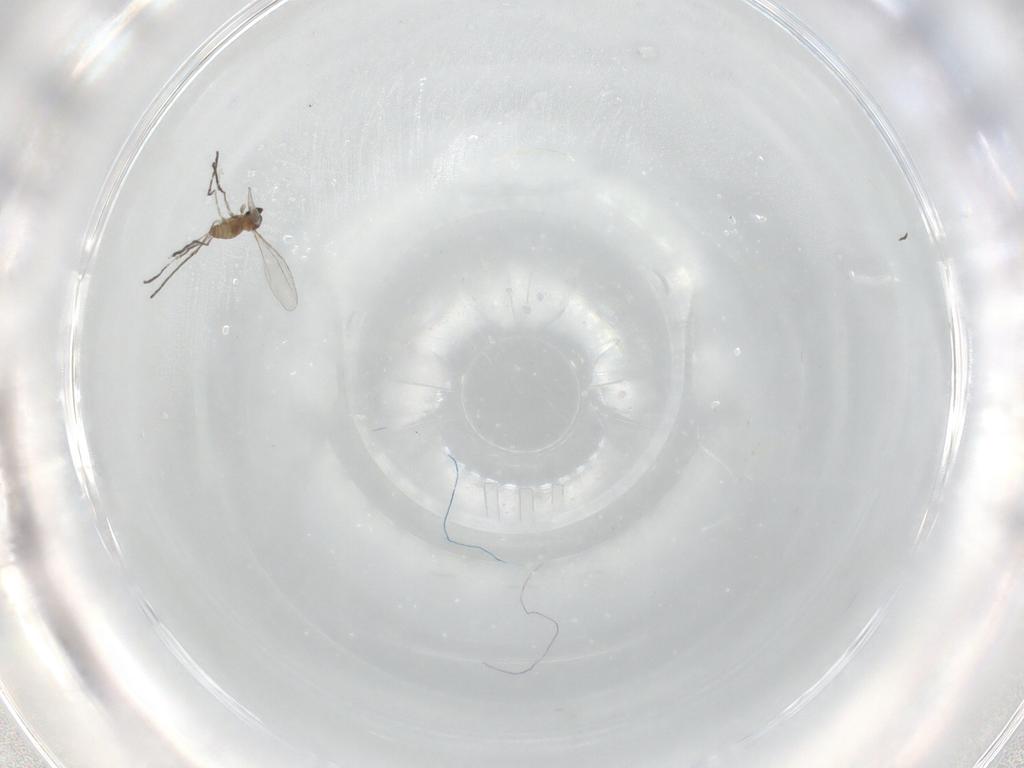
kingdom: Animalia
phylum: Arthropoda
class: Insecta
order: Diptera
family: Cecidomyiidae
